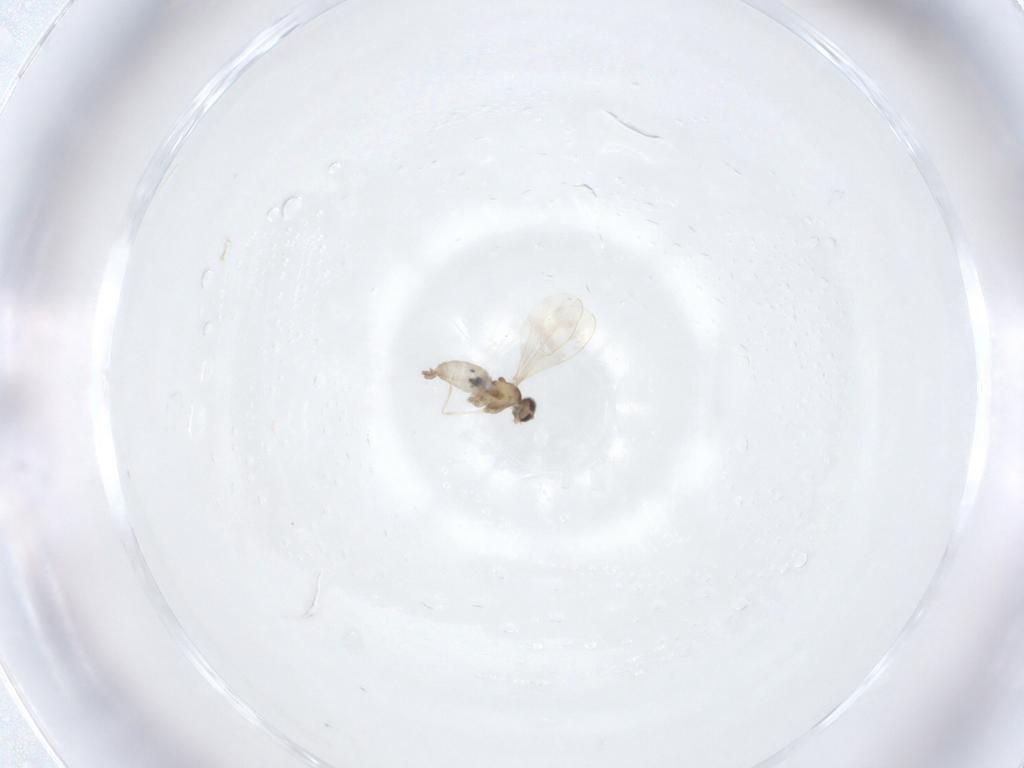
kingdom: Animalia
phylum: Arthropoda
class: Insecta
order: Diptera
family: Cecidomyiidae
